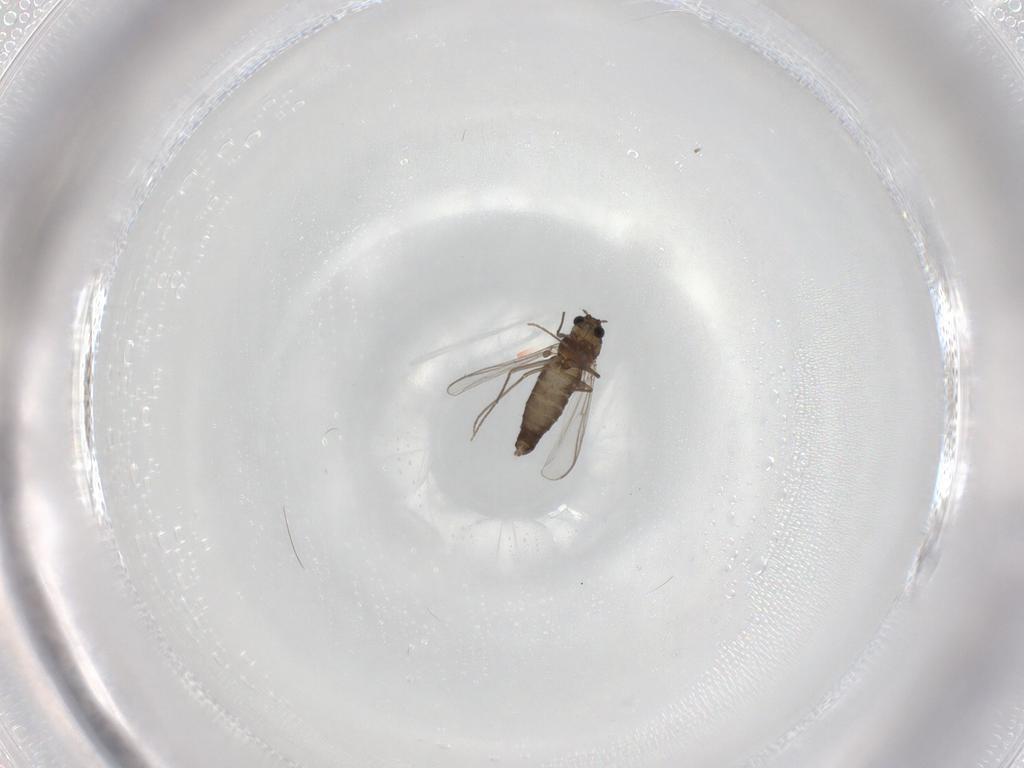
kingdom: Animalia
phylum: Arthropoda
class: Insecta
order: Diptera
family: Chironomidae
